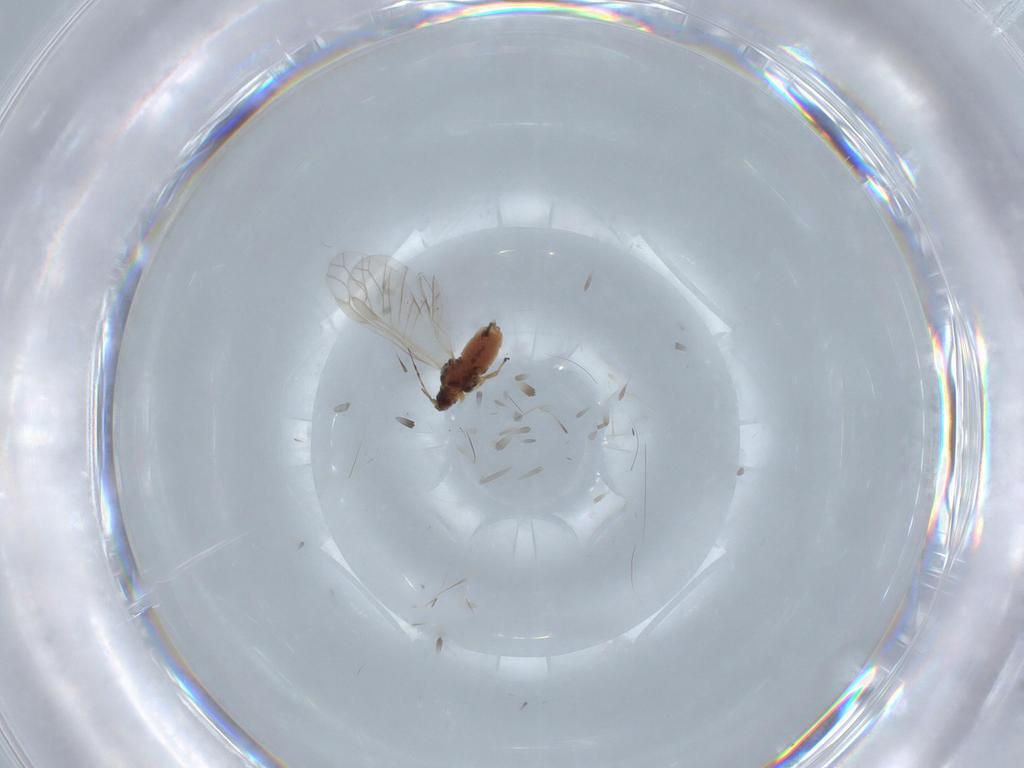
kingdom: Animalia
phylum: Arthropoda
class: Insecta
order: Hemiptera
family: Aphididae
